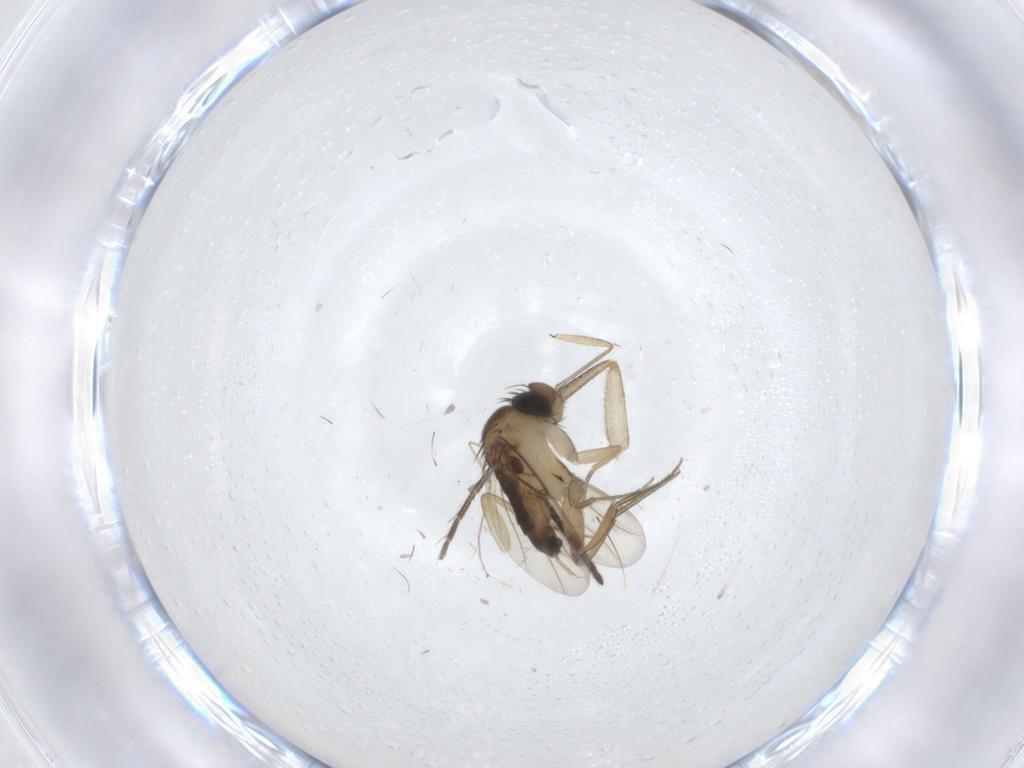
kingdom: Animalia
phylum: Arthropoda
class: Insecta
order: Diptera
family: Phoridae
